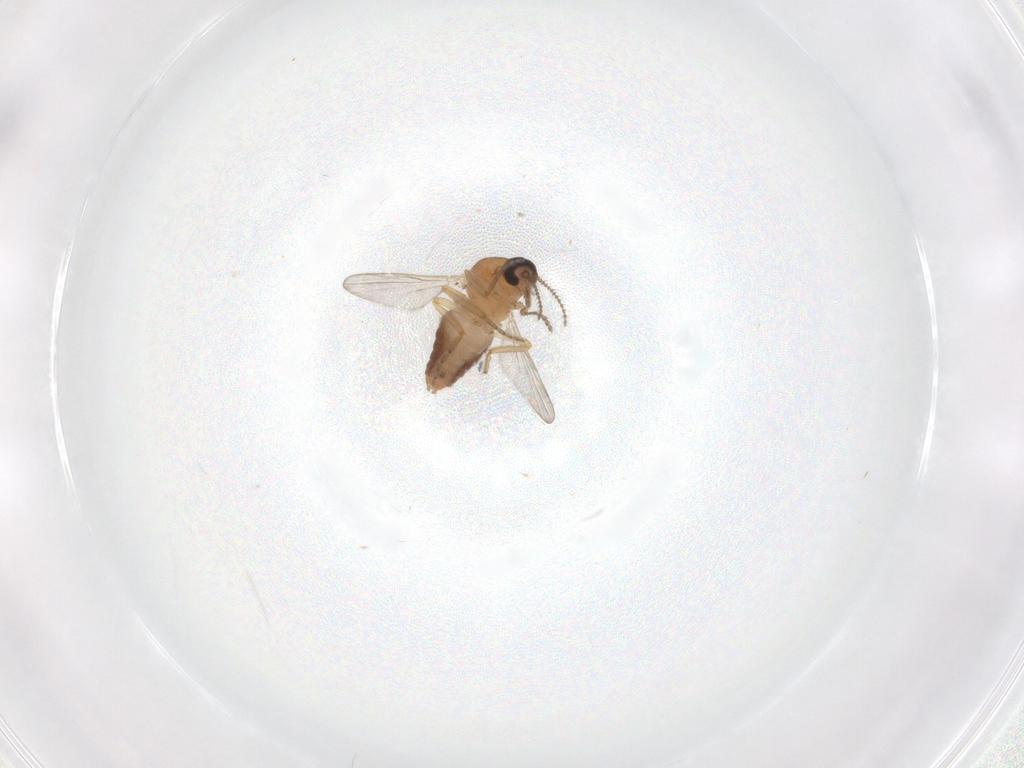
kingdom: Animalia
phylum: Arthropoda
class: Insecta
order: Diptera
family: Ceratopogonidae
